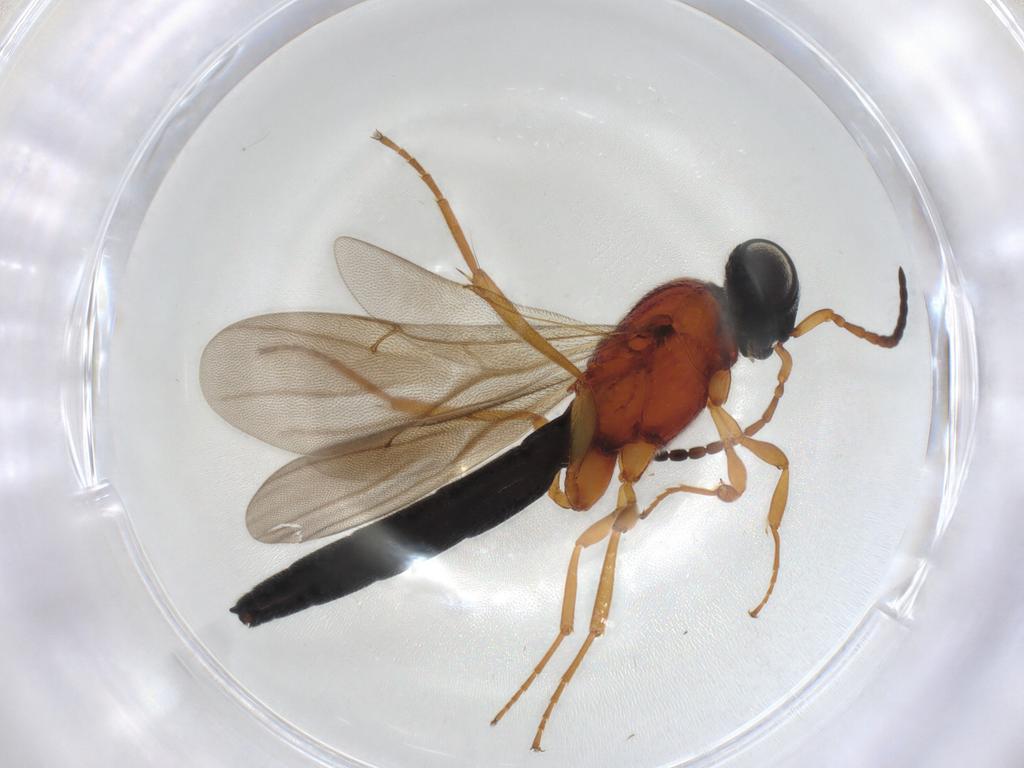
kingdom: Animalia
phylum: Arthropoda
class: Insecta
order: Hymenoptera
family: Scelionidae
